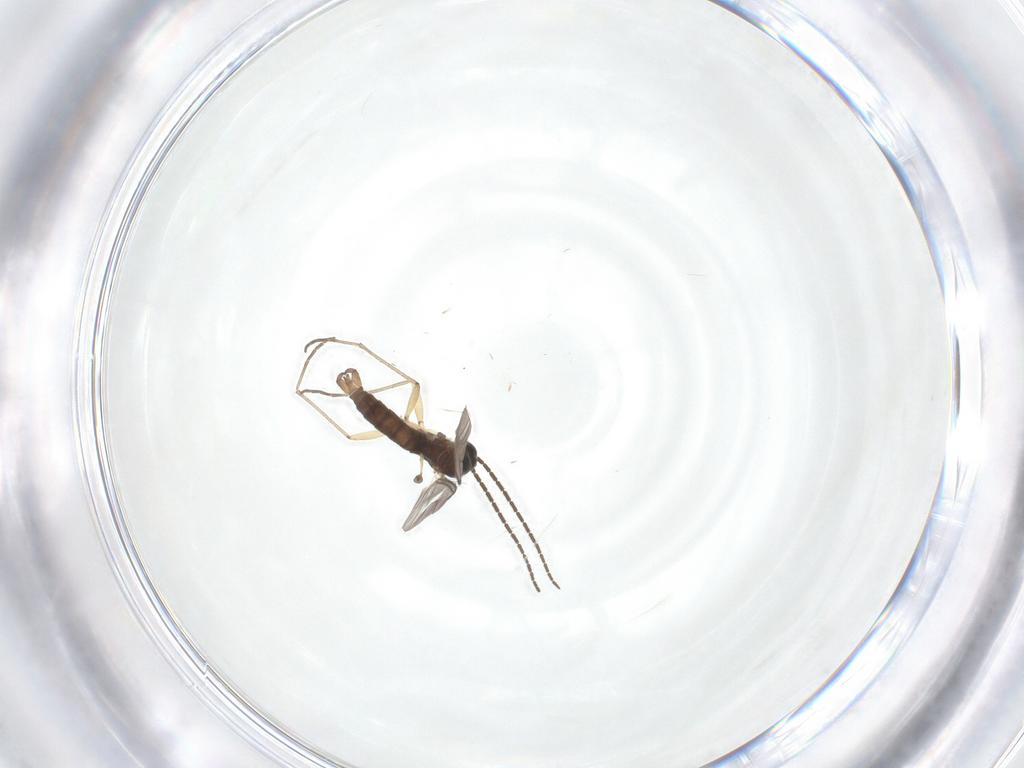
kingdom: Animalia
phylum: Arthropoda
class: Insecta
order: Diptera
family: Sciaridae
